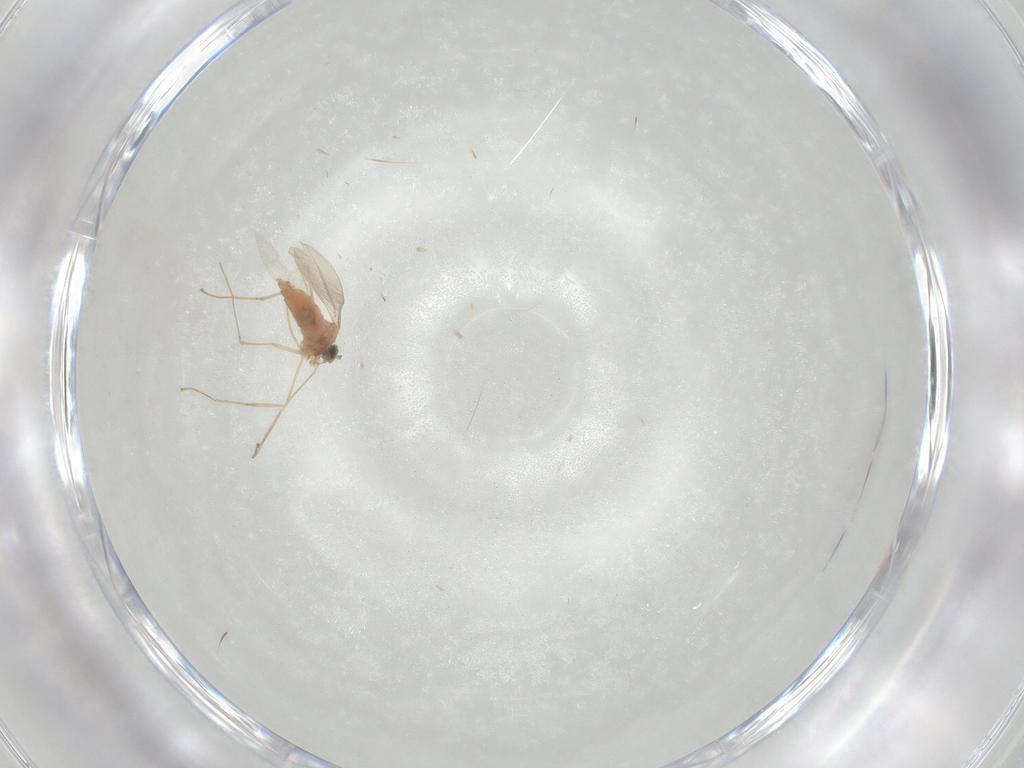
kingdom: Animalia
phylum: Arthropoda
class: Insecta
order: Diptera
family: Cecidomyiidae
